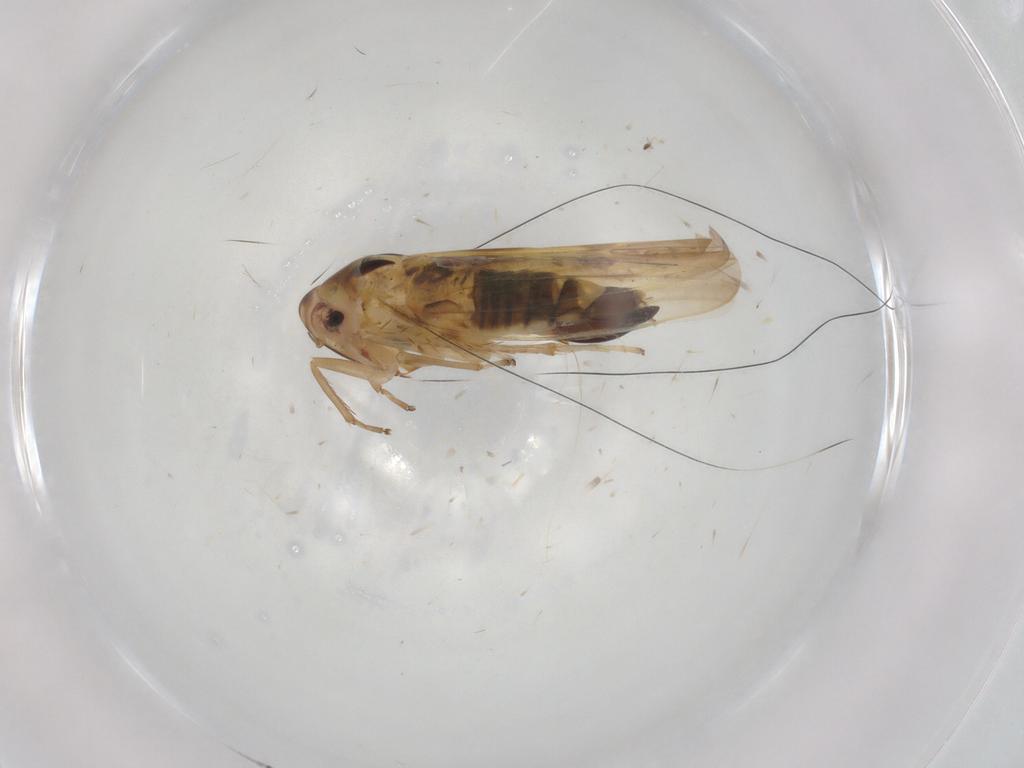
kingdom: Animalia
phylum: Arthropoda
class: Insecta
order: Hemiptera
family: Cicadellidae
